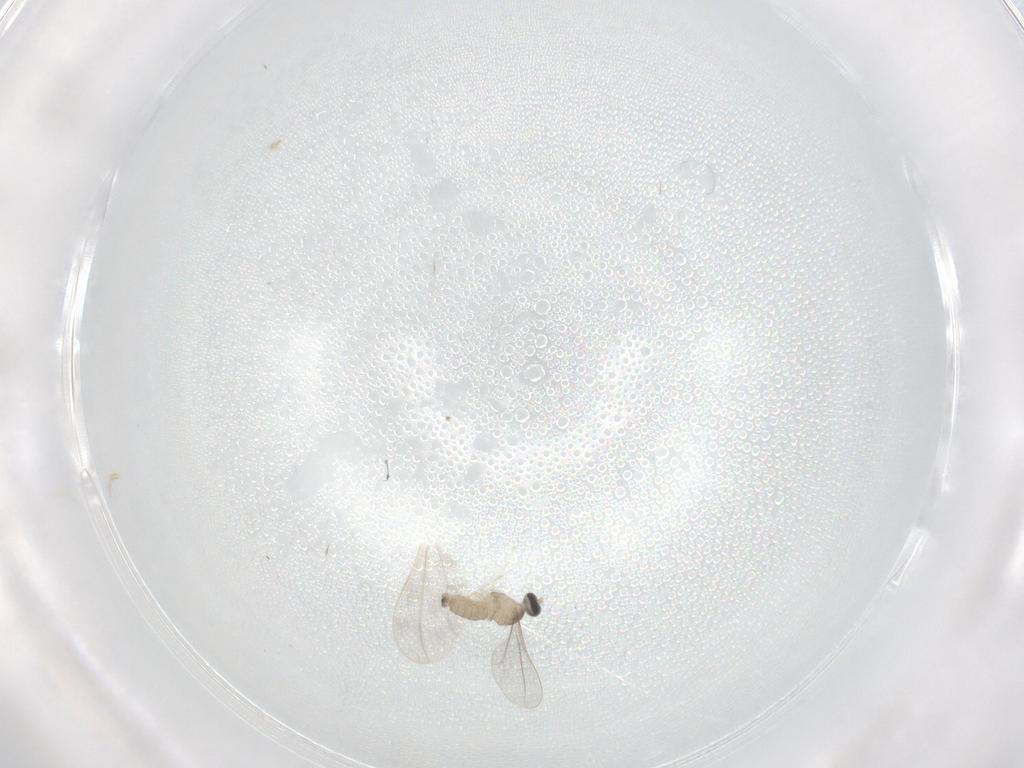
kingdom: Animalia
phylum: Arthropoda
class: Insecta
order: Diptera
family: Cecidomyiidae
